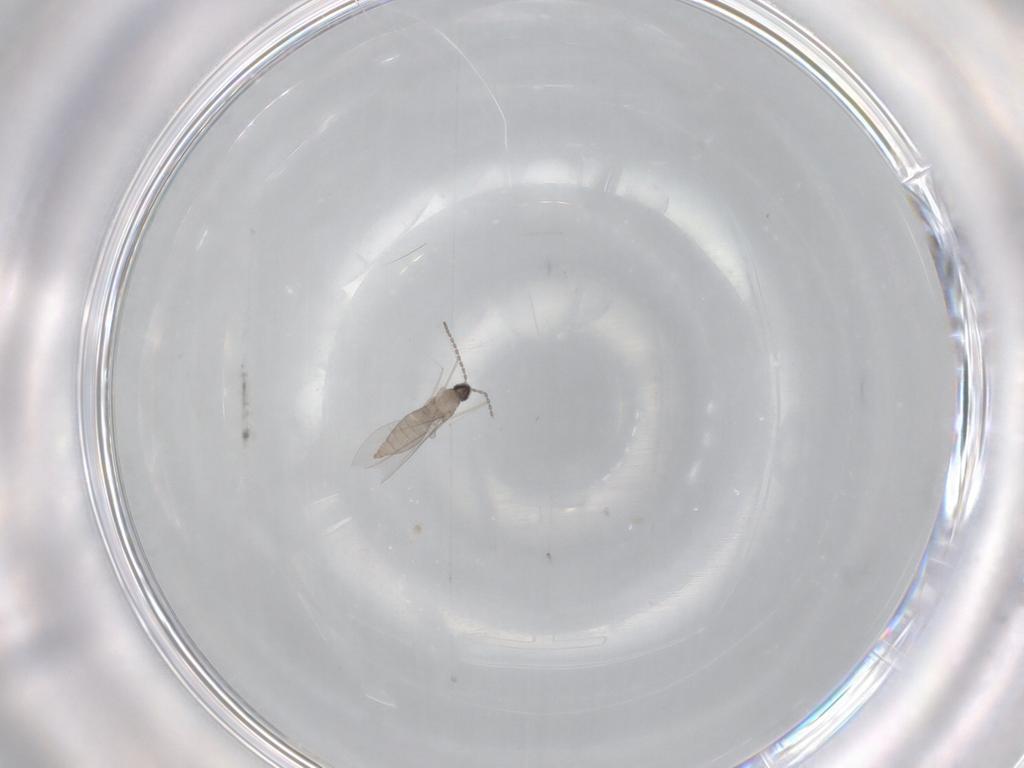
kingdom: Animalia
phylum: Arthropoda
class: Insecta
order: Diptera
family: Cecidomyiidae
